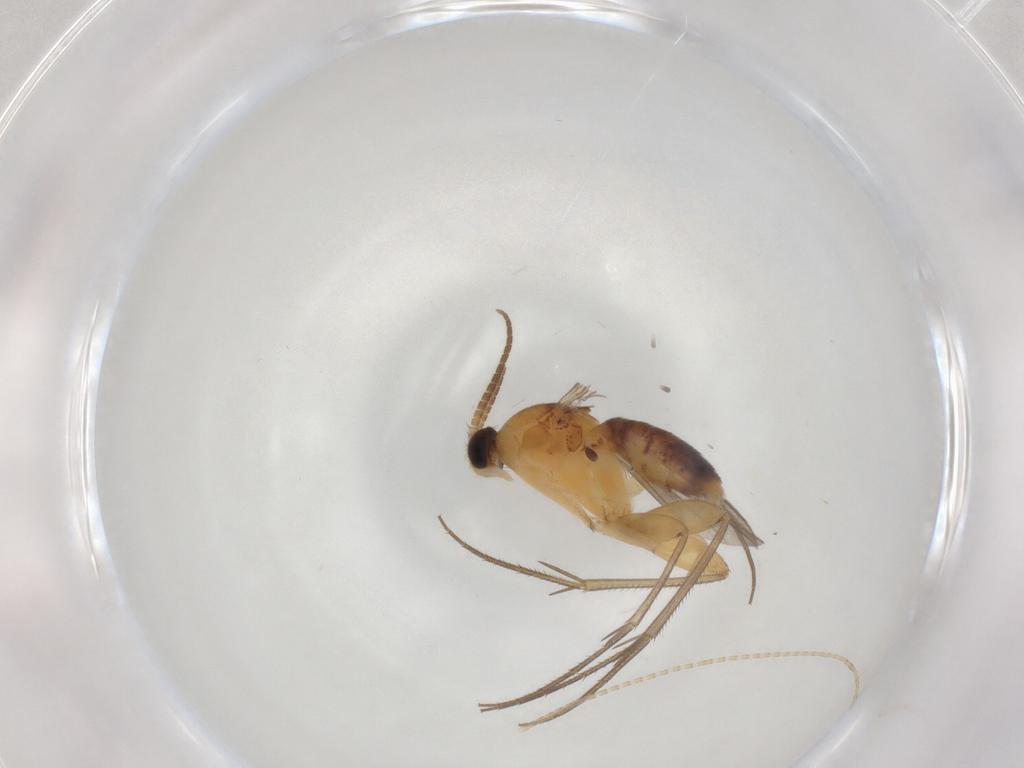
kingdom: Animalia
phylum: Arthropoda
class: Insecta
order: Diptera
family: Mycetophilidae
